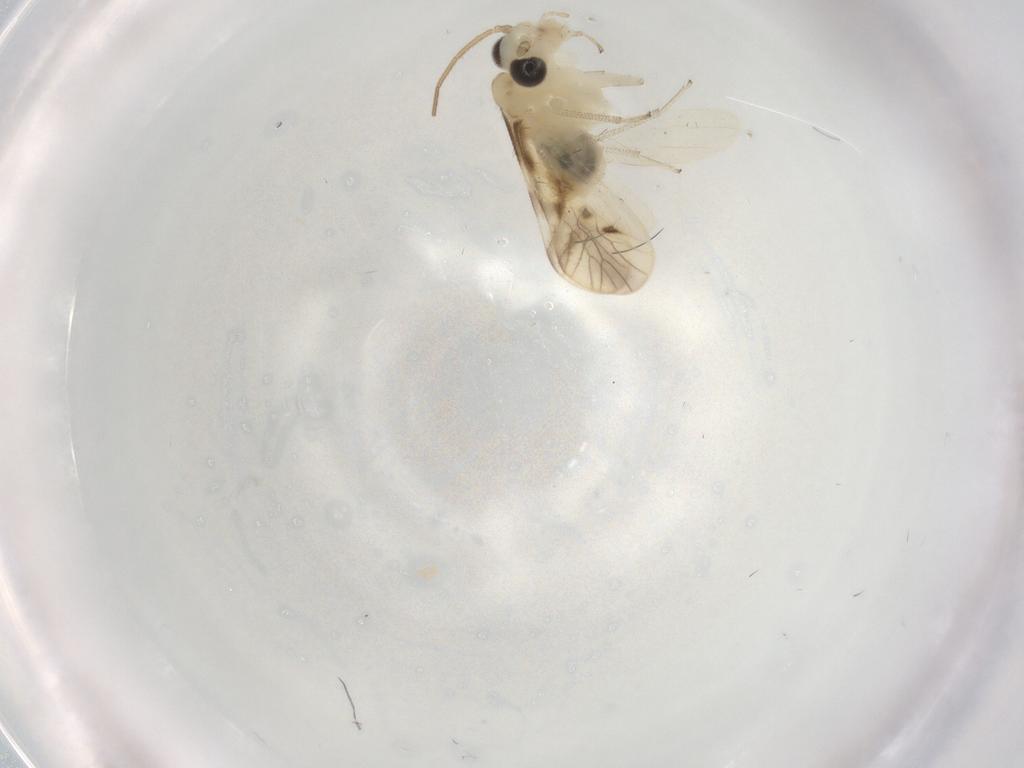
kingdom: Animalia
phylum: Arthropoda
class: Insecta
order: Psocodea
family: Caeciliusidae
